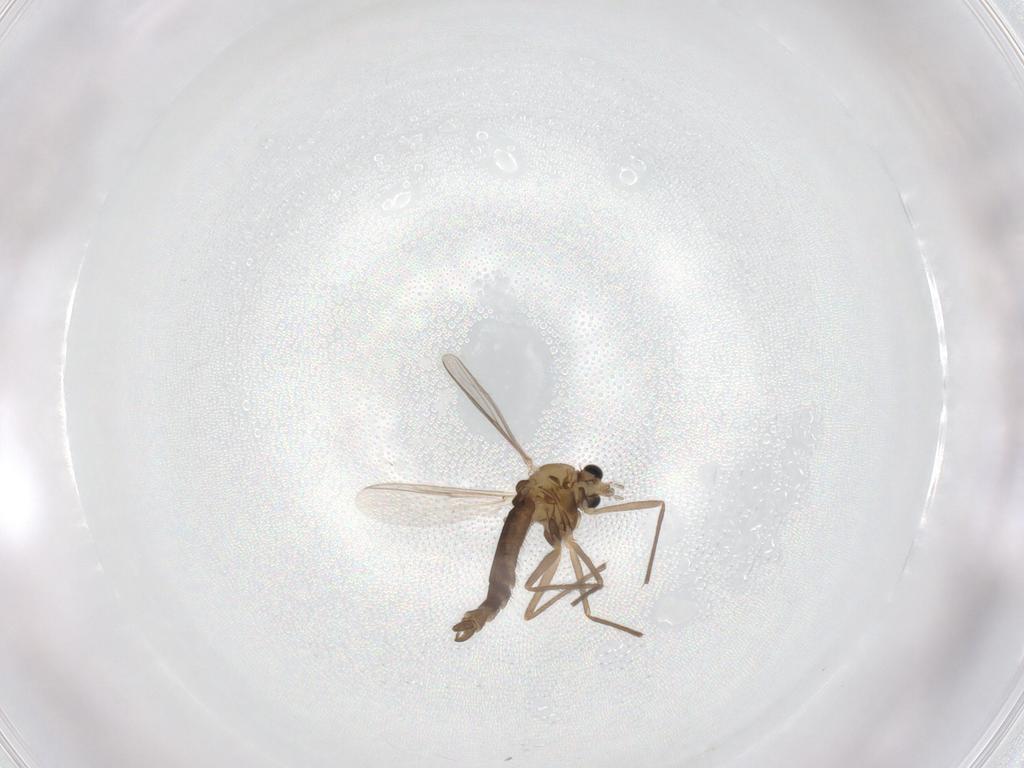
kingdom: Animalia
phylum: Arthropoda
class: Insecta
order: Diptera
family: Chironomidae
